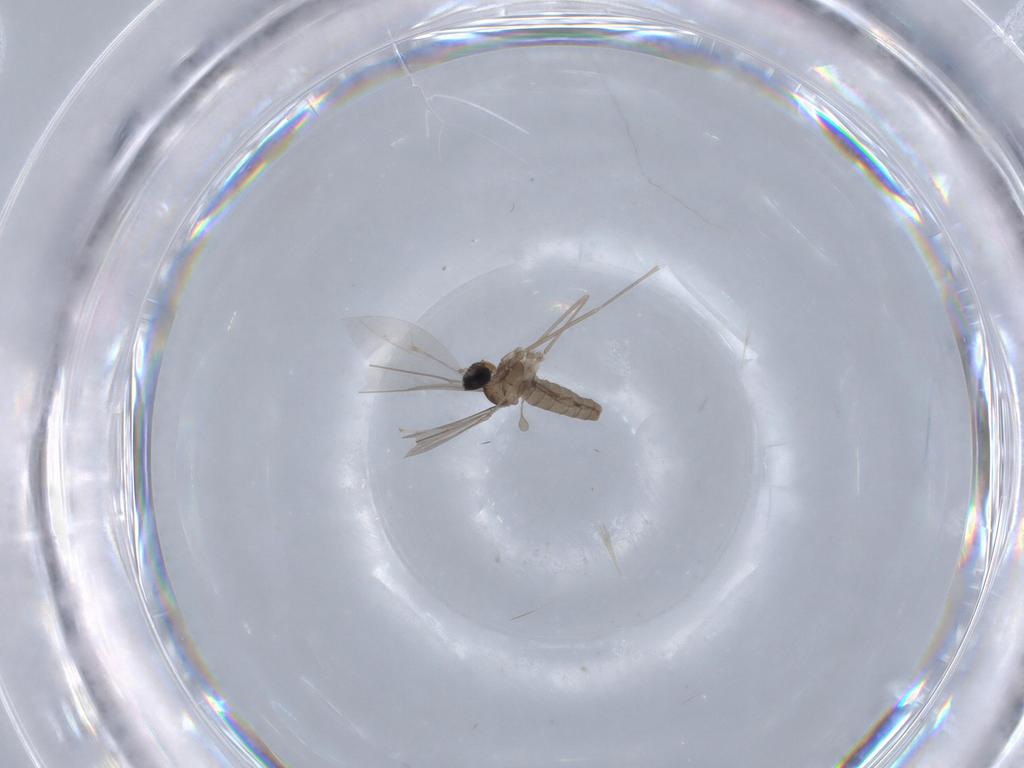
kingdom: Animalia
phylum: Arthropoda
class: Insecta
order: Diptera
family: Cecidomyiidae
